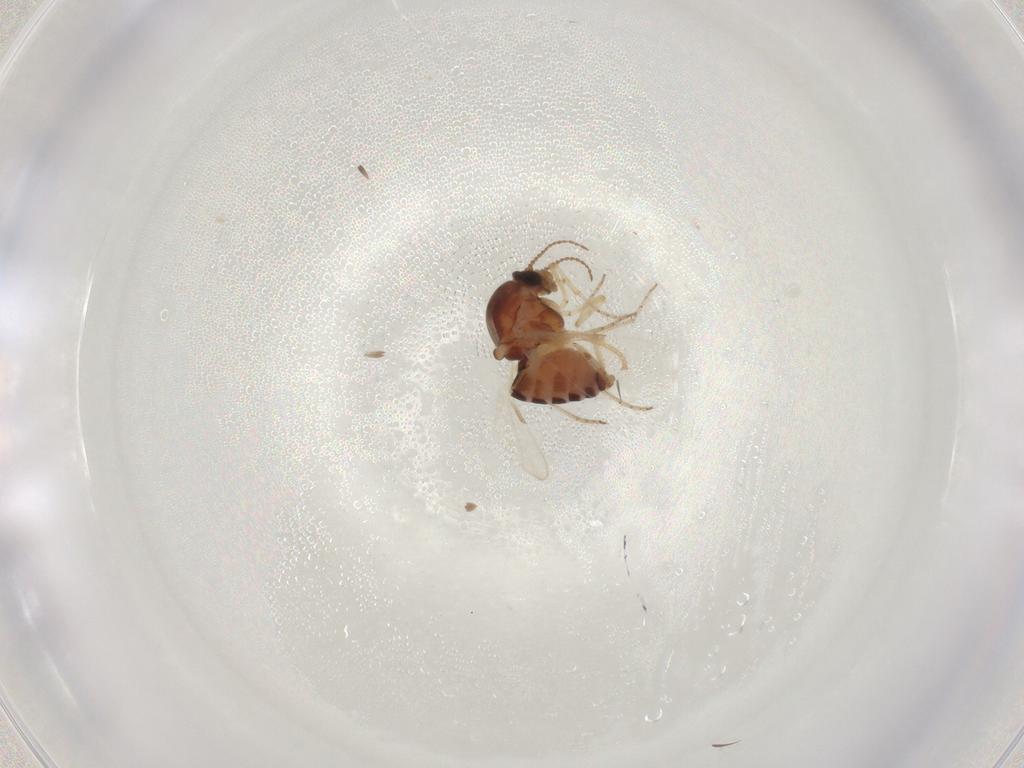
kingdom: Animalia
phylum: Arthropoda
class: Insecta
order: Diptera
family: Ceratopogonidae
